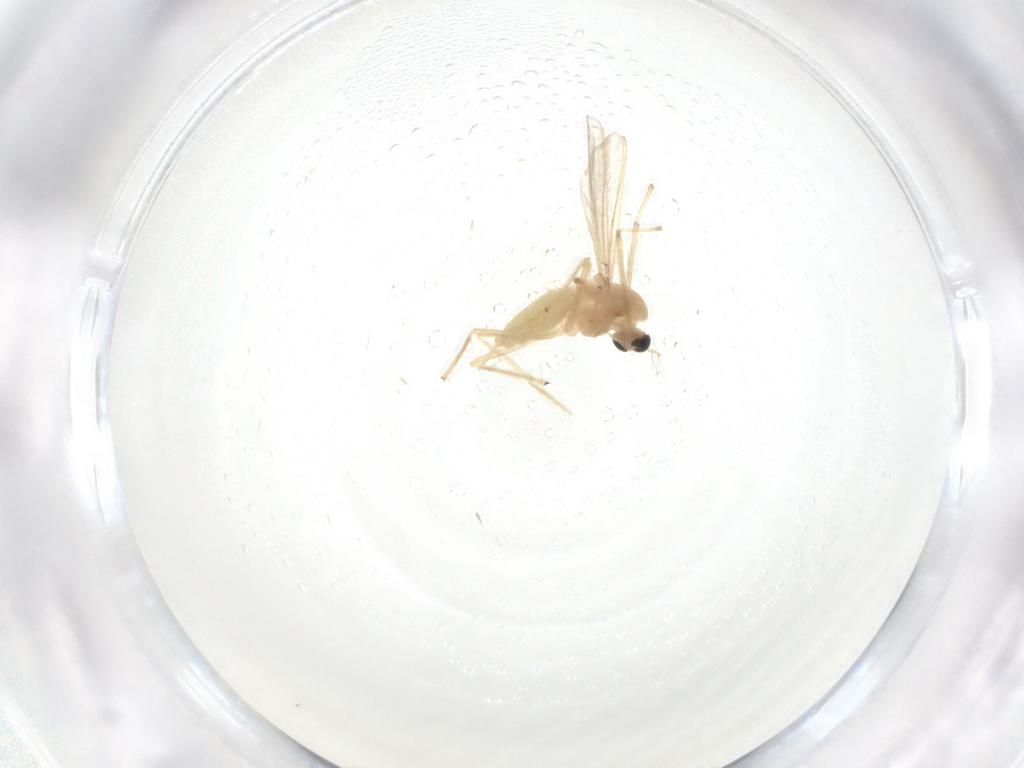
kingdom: Animalia
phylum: Arthropoda
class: Insecta
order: Diptera
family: Chironomidae
